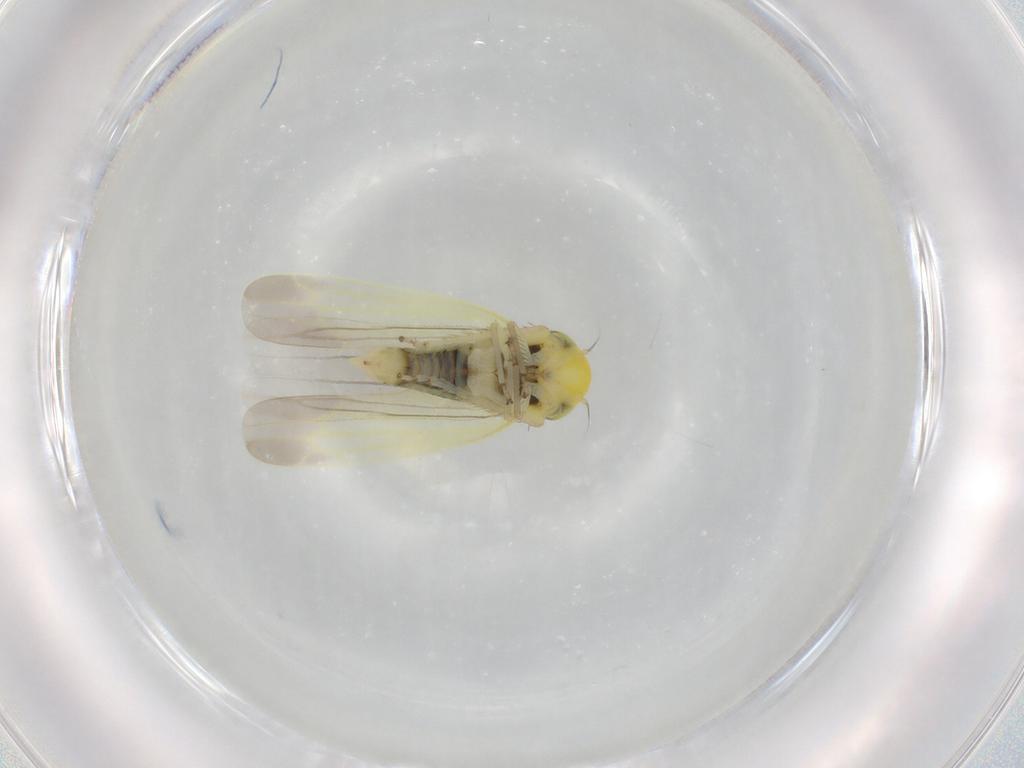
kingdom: Animalia
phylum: Arthropoda
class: Insecta
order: Hemiptera
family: Cicadellidae
